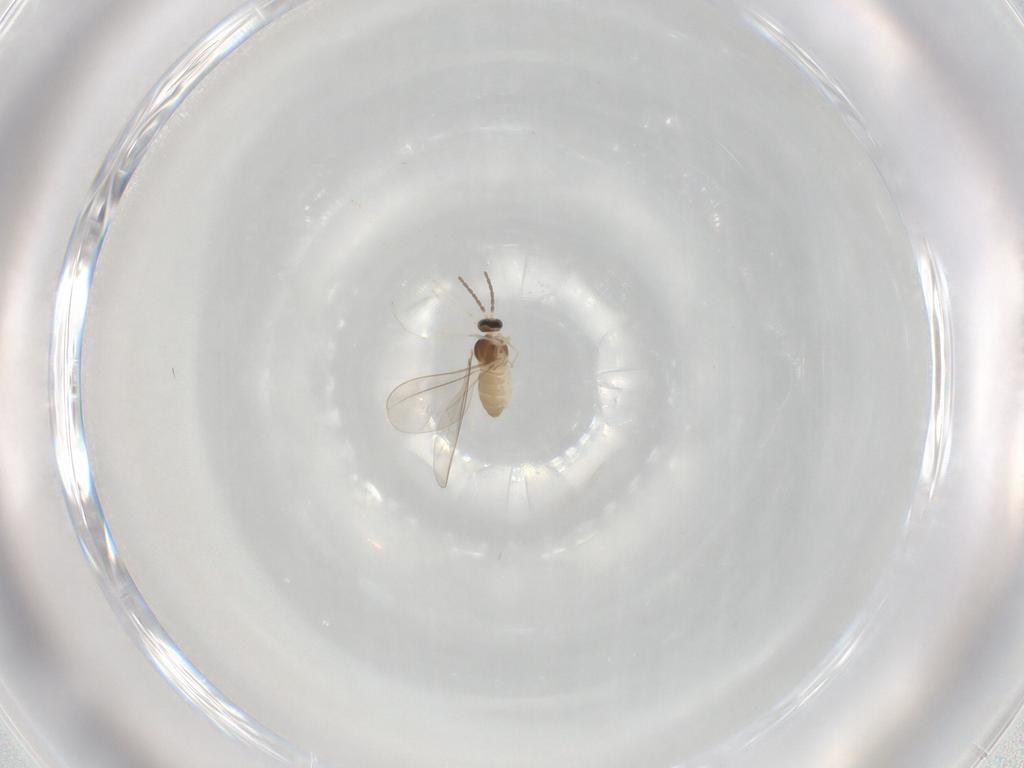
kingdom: Animalia
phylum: Arthropoda
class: Insecta
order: Diptera
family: Cecidomyiidae
